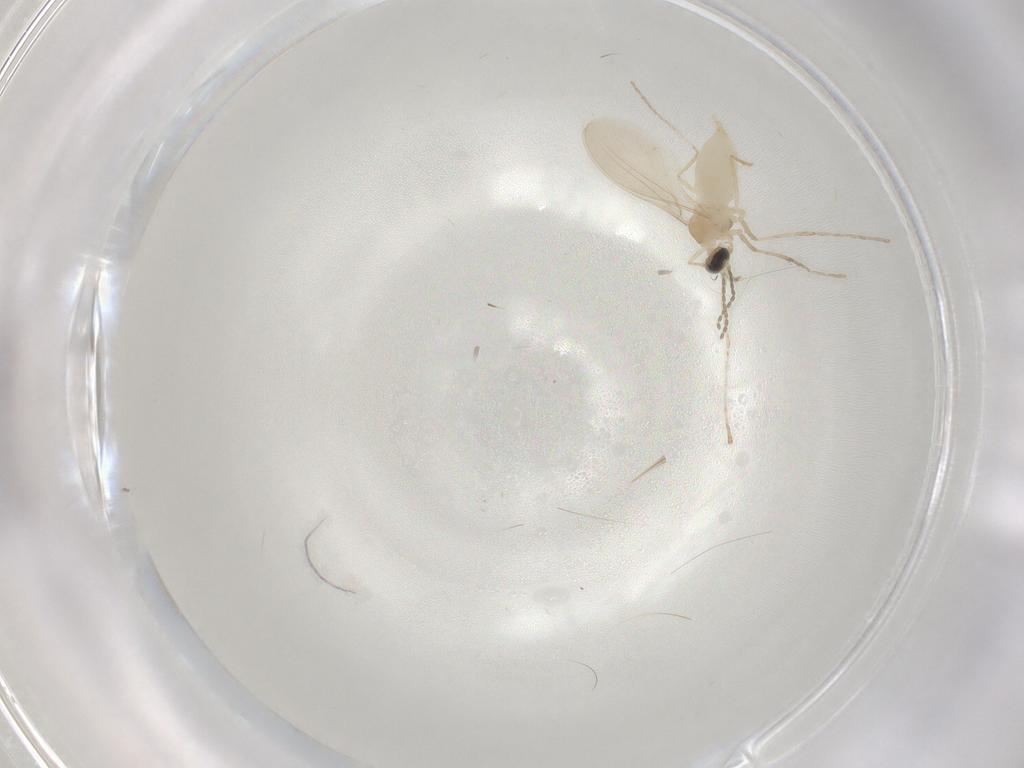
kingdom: Animalia
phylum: Arthropoda
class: Insecta
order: Diptera
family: Cecidomyiidae
